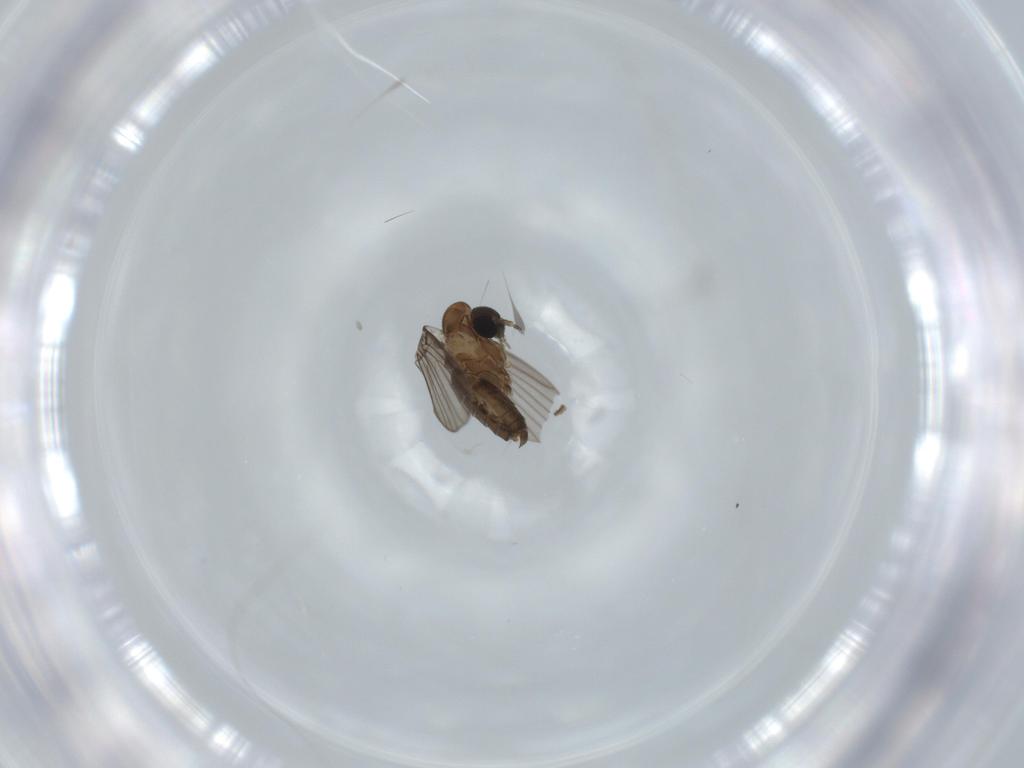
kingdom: Animalia
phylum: Arthropoda
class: Insecta
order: Diptera
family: Psychodidae
